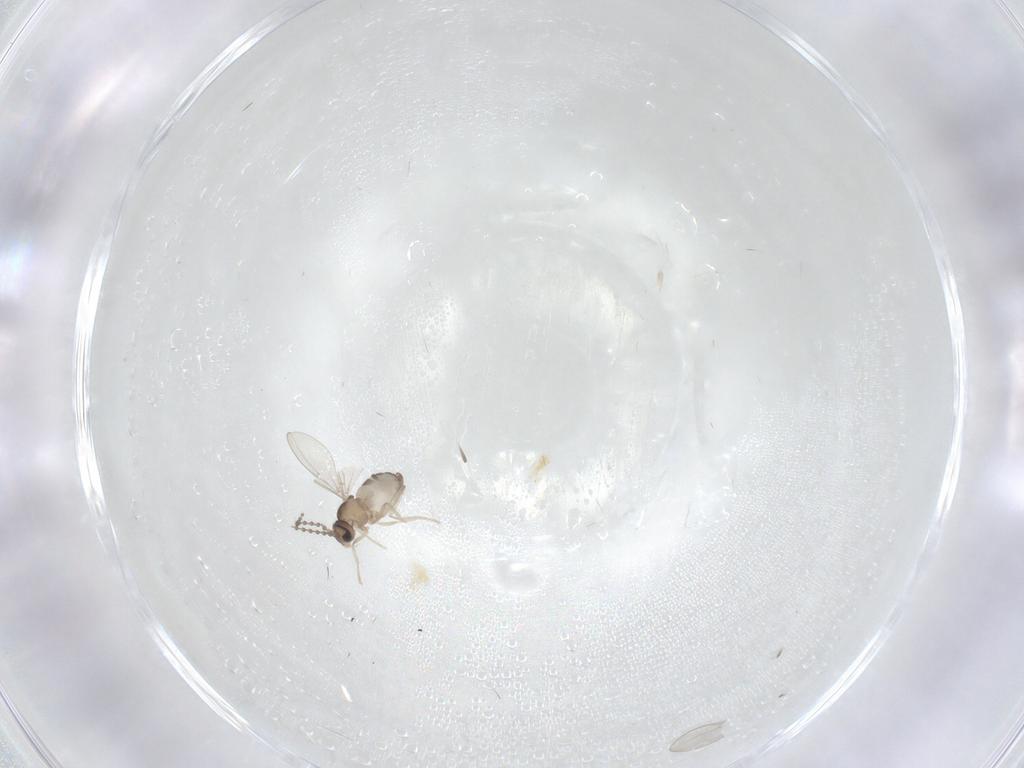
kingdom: Animalia
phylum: Arthropoda
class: Insecta
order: Diptera
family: Cecidomyiidae
